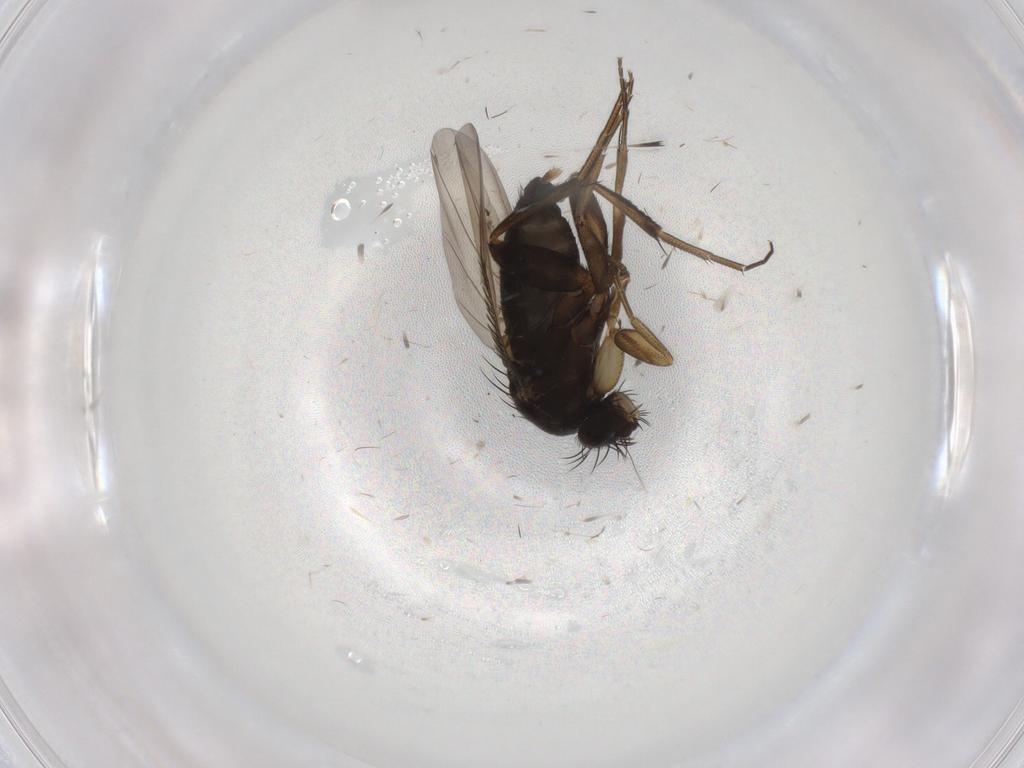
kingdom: Animalia
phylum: Arthropoda
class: Insecta
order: Diptera
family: Phoridae
